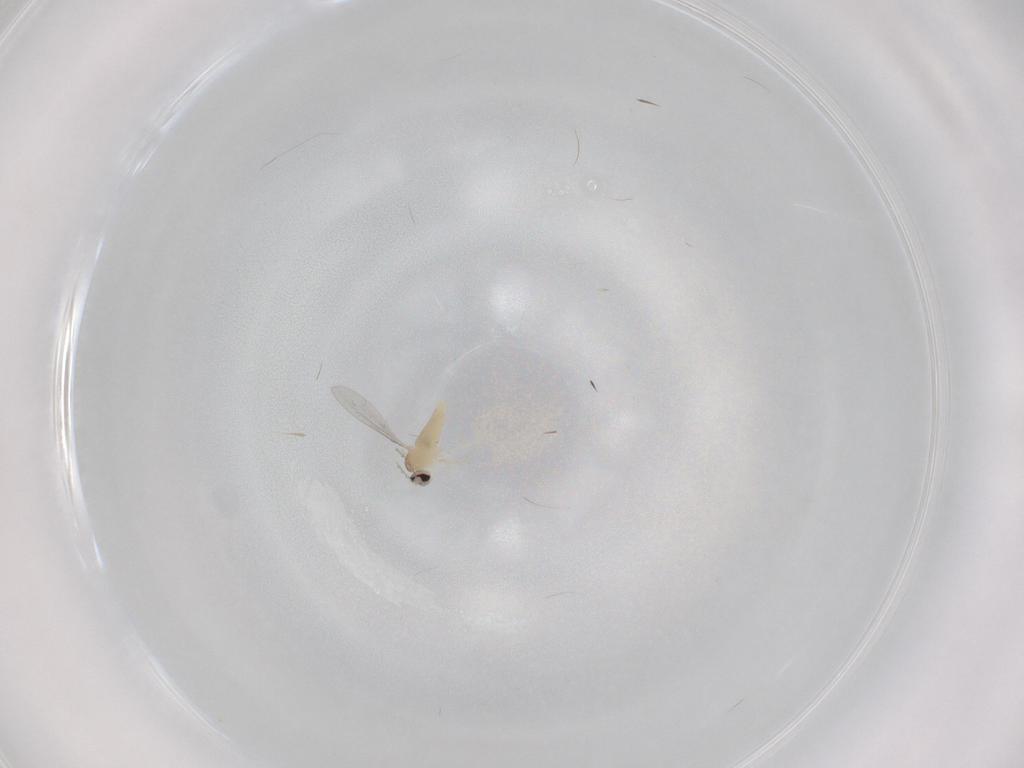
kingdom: Animalia
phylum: Arthropoda
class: Insecta
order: Diptera
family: Cecidomyiidae
